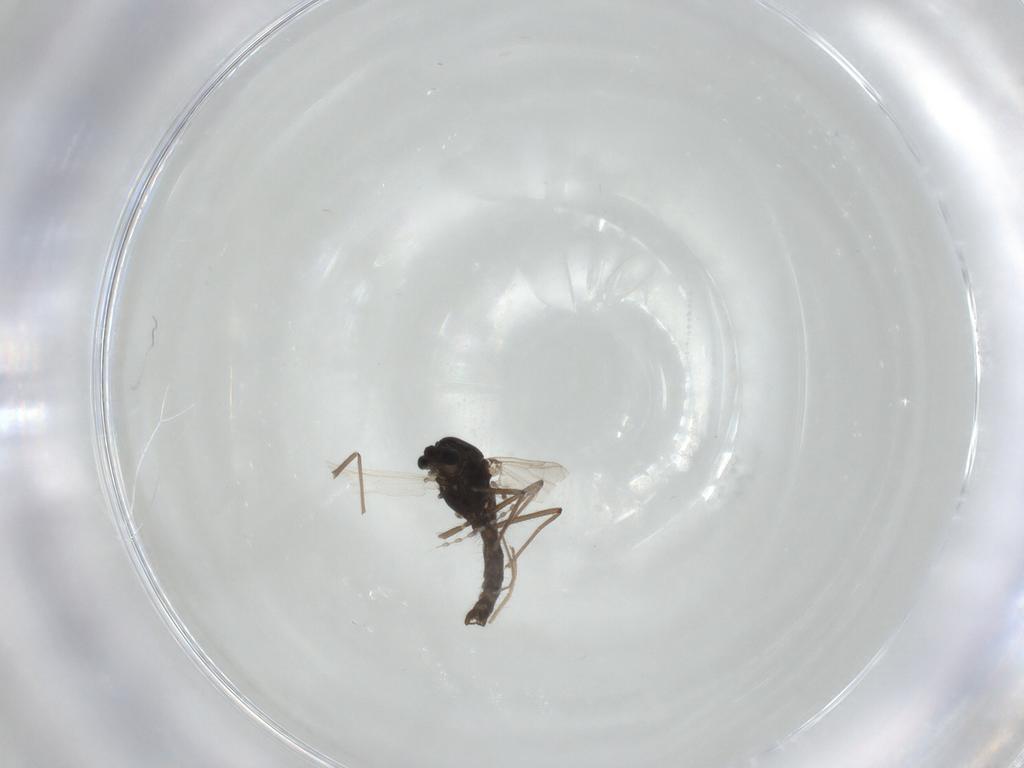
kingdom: Animalia
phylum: Arthropoda
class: Insecta
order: Diptera
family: Chironomidae
